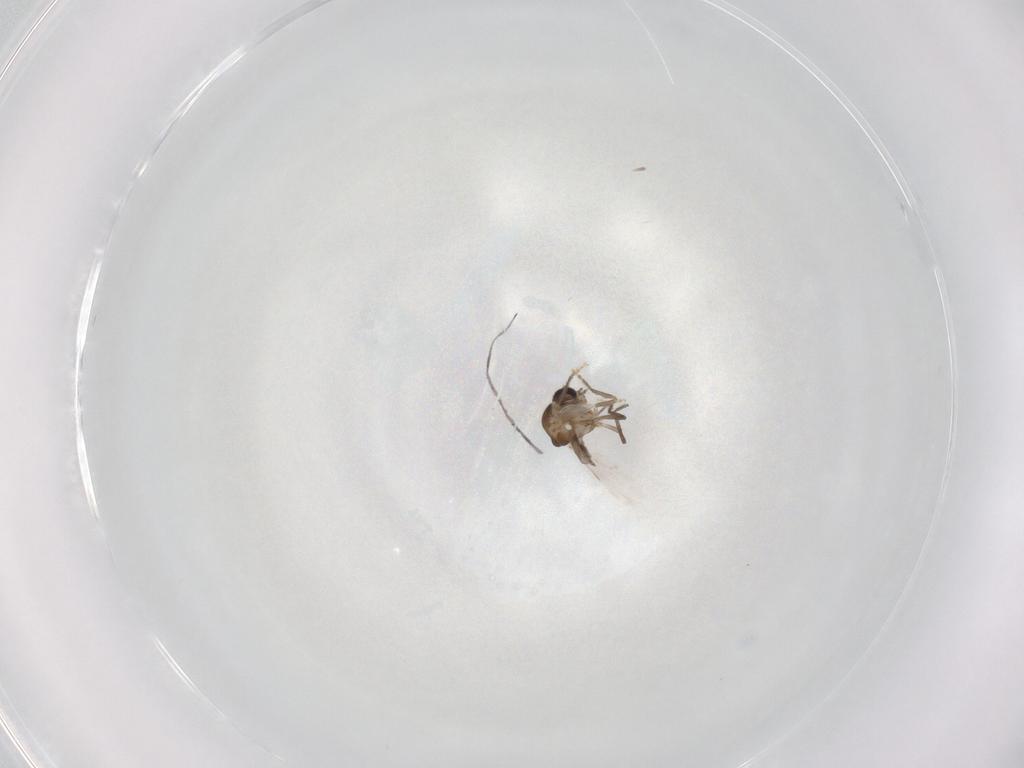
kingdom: Animalia
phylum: Arthropoda
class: Insecta
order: Diptera
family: Ceratopogonidae
